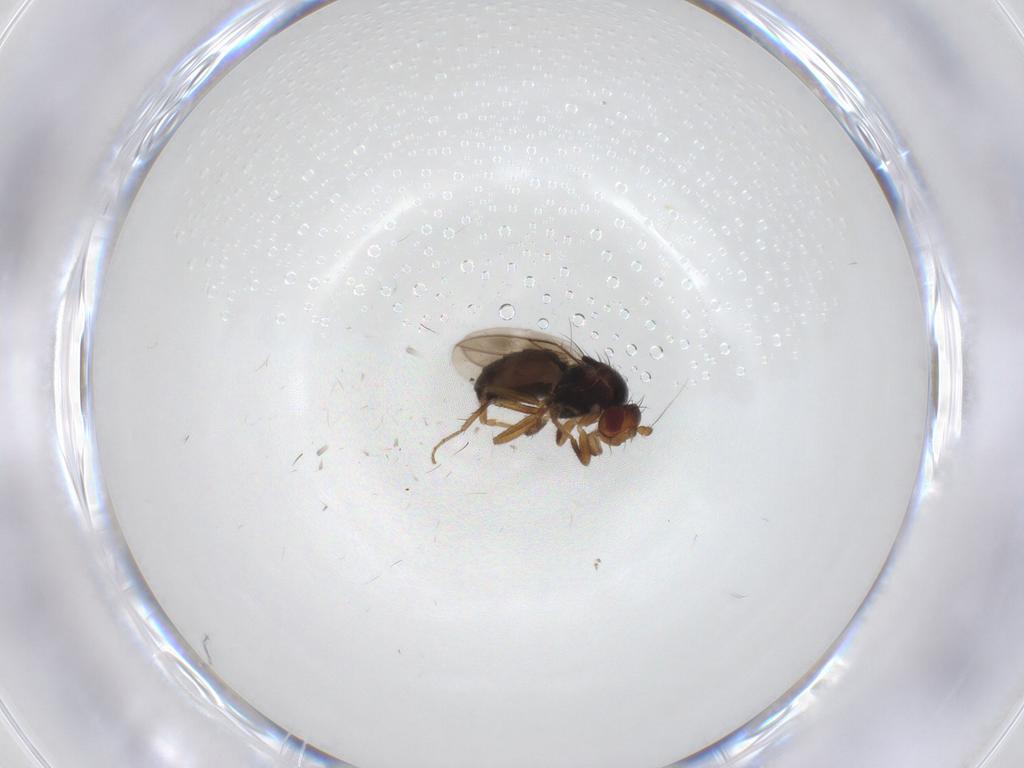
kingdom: Animalia
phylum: Arthropoda
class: Insecta
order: Diptera
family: Sphaeroceridae
